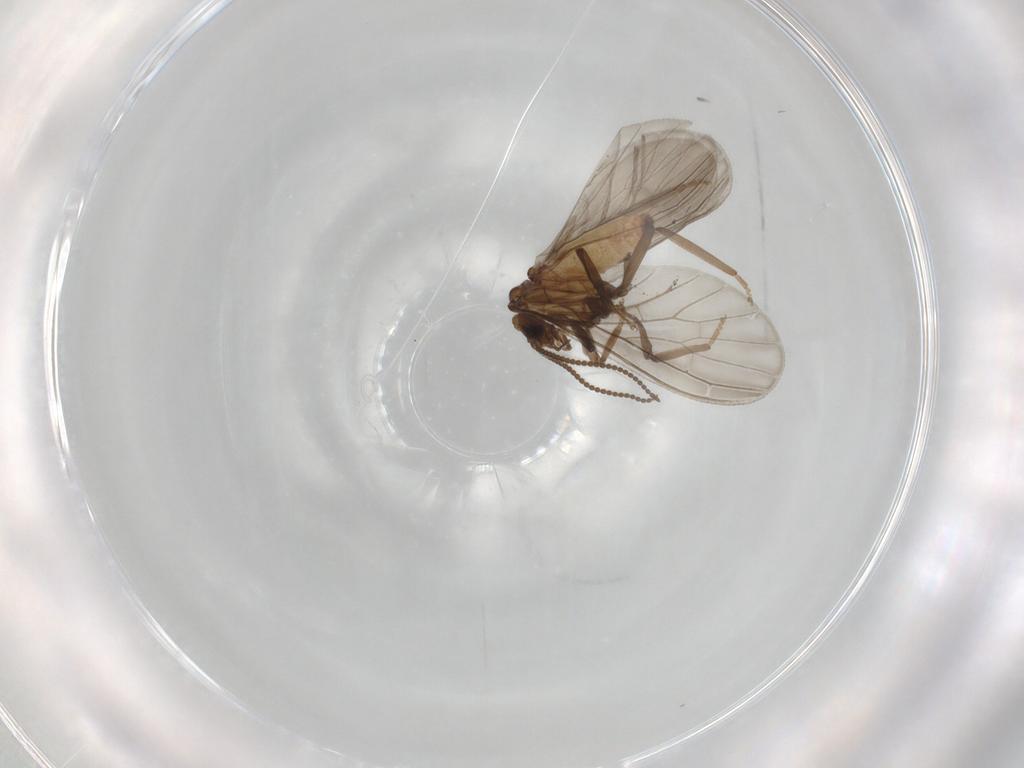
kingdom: Animalia
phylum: Arthropoda
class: Insecta
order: Neuroptera
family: Coniopterygidae
